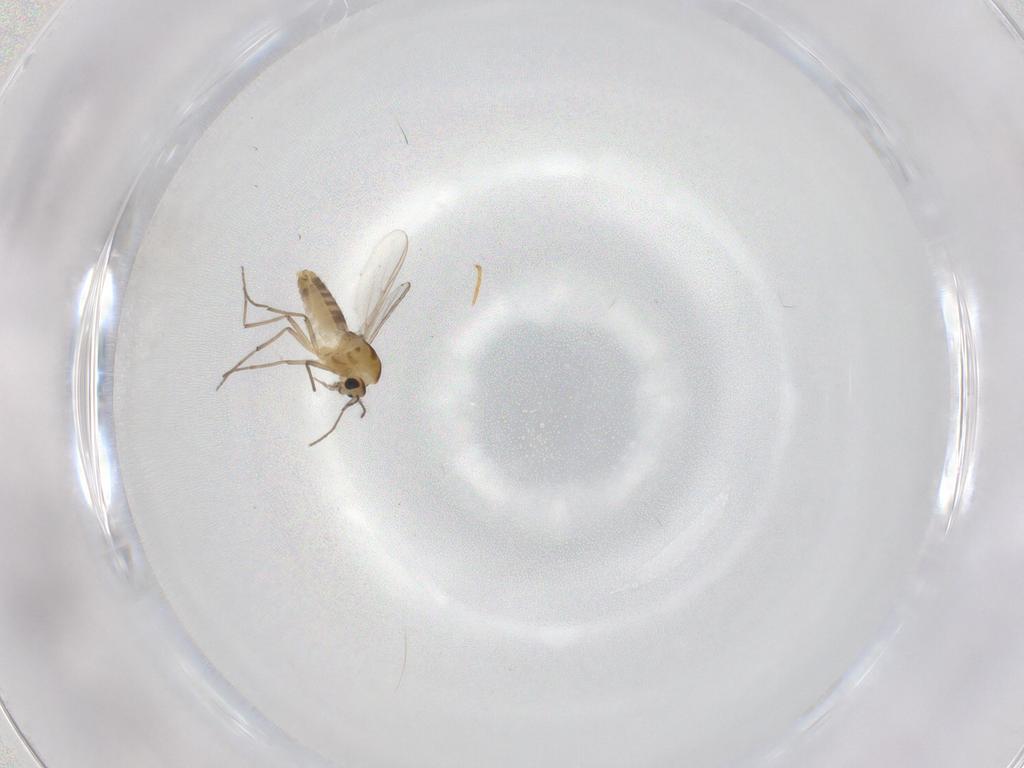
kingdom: Animalia
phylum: Arthropoda
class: Insecta
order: Diptera
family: Chironomidae
